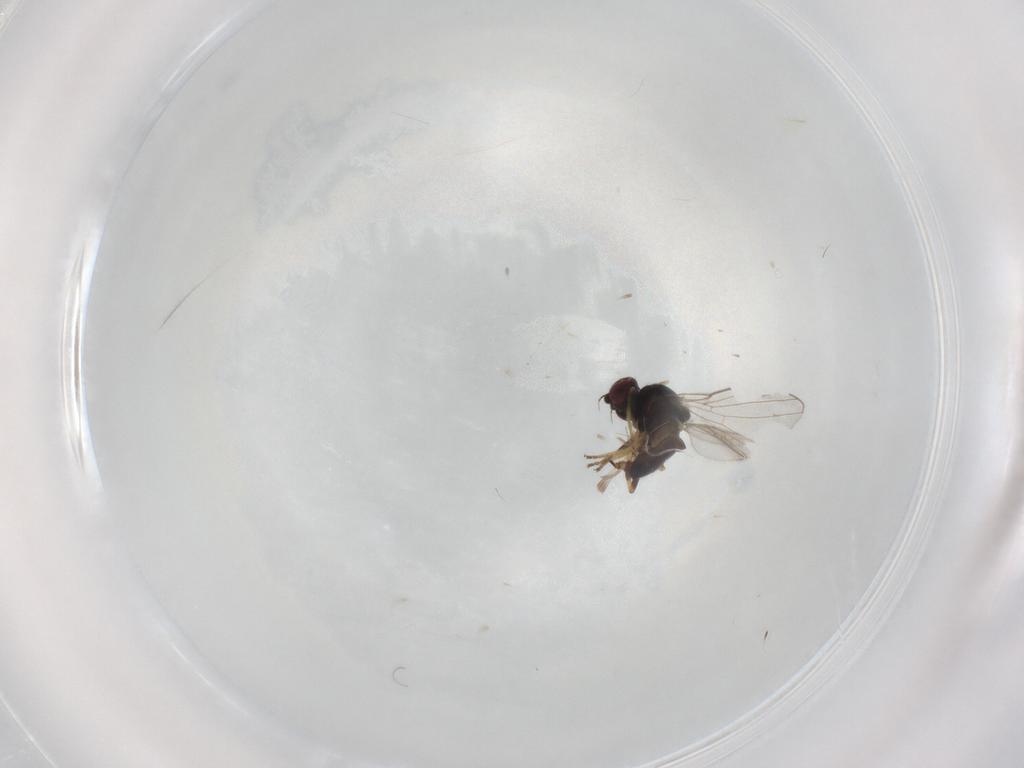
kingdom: Animalia
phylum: Arthropoda
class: Insecta
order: Diptera
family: Chloropidae
